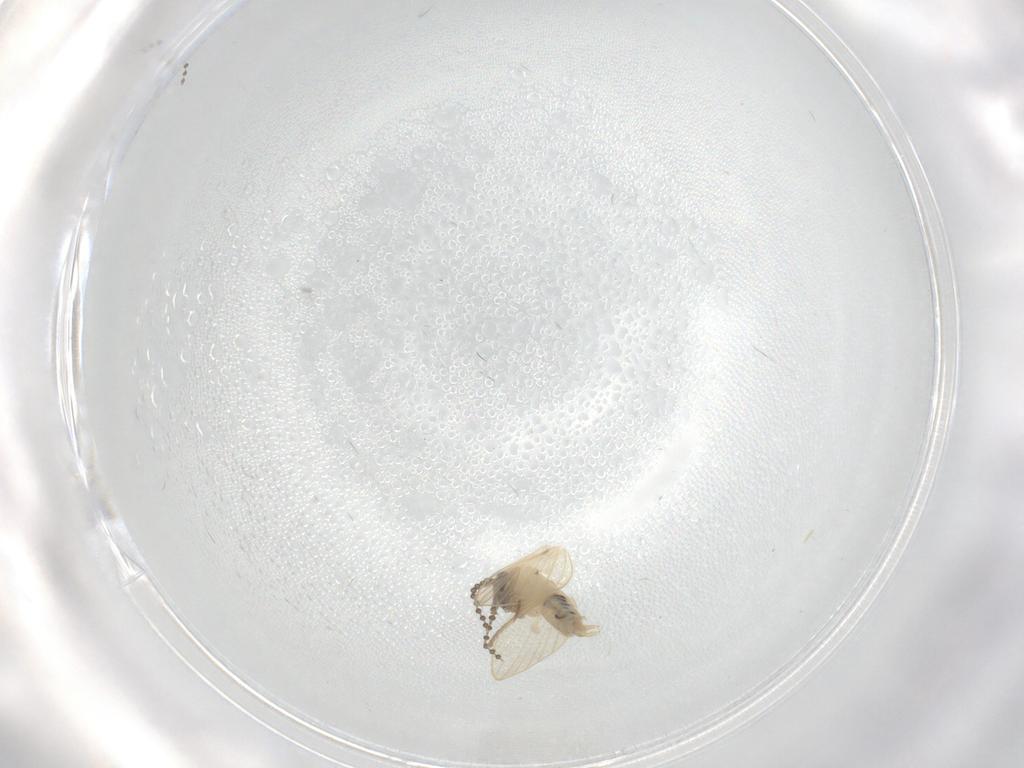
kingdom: Animalia
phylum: Arthropoda
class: Insecta
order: Diptera
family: Psychodidae
